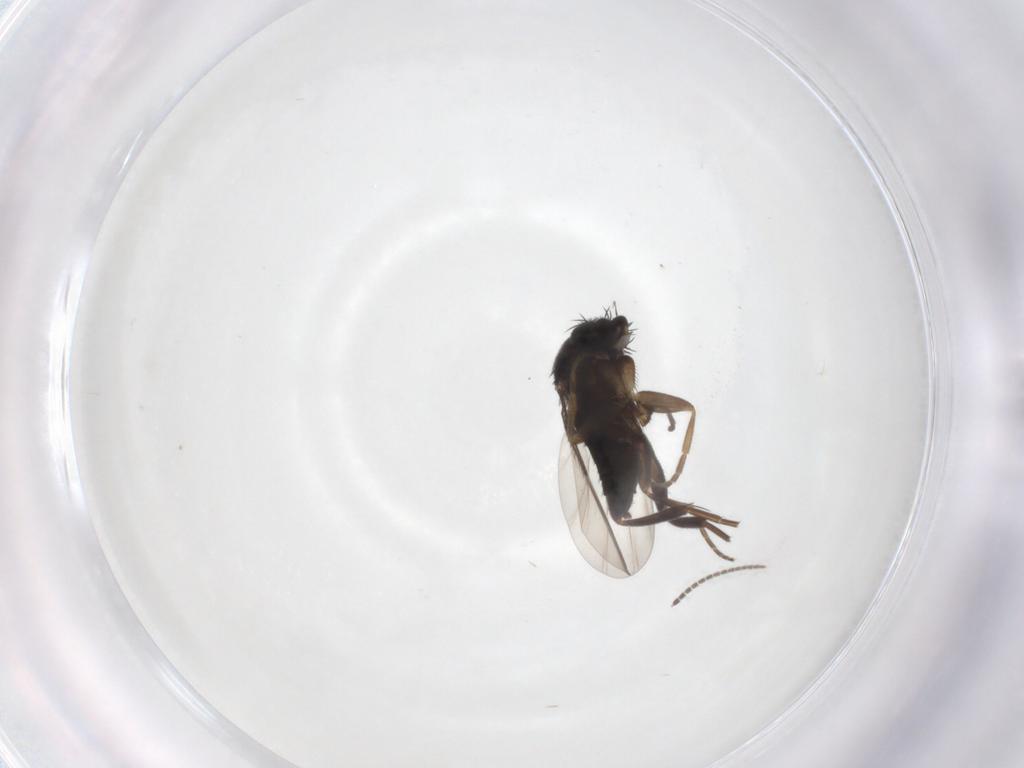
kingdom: Animalia
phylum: Arthropoda
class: Insecta
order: Diptera
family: Phoridae
